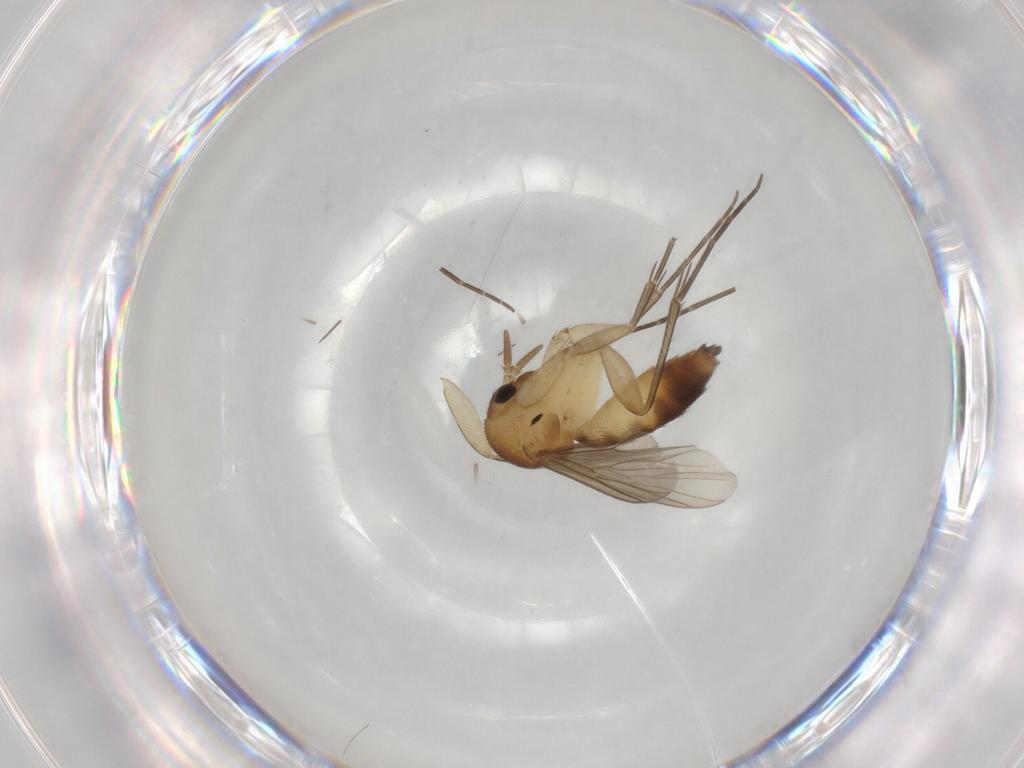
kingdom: Animalia
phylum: Arthropoda
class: Insecta
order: Diptera
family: Mycetophilidae
